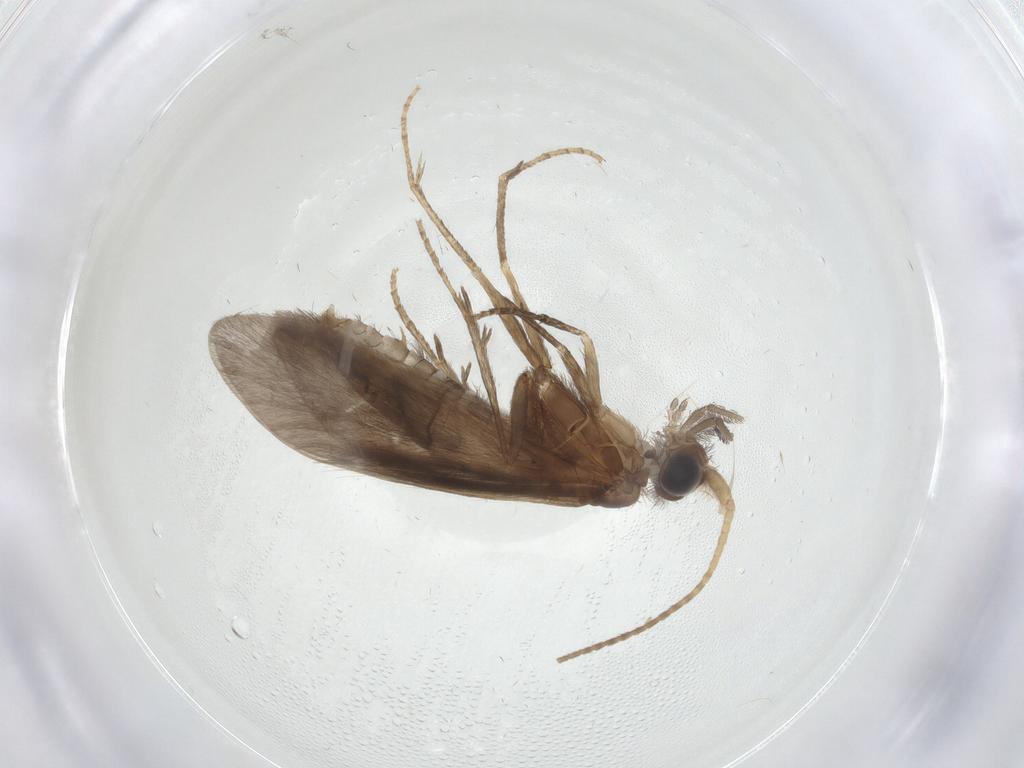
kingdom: Animalia
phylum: Arthropoda
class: Insecta
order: Trichoptera
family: Helicopsychidae
